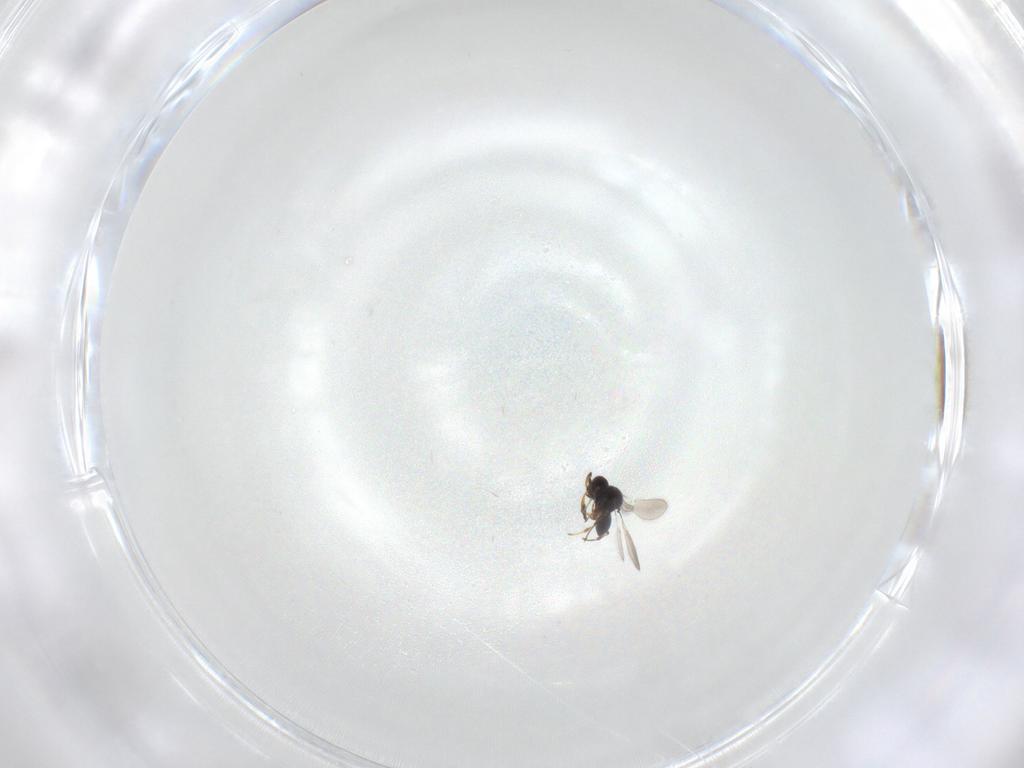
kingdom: Animalia
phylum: Arthropoda
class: Insecta
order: Hymenoptera
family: Platygastridae
